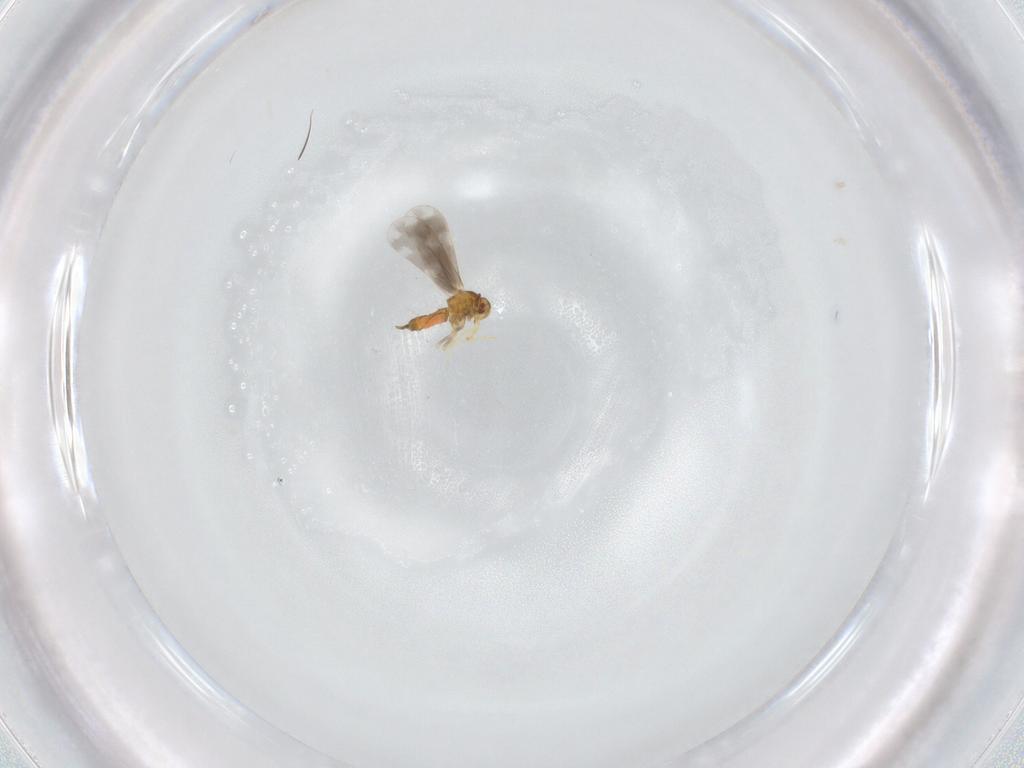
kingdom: Animalia
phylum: Arthropoda
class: Insecta
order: Hemiptera
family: Aleyrodidae
